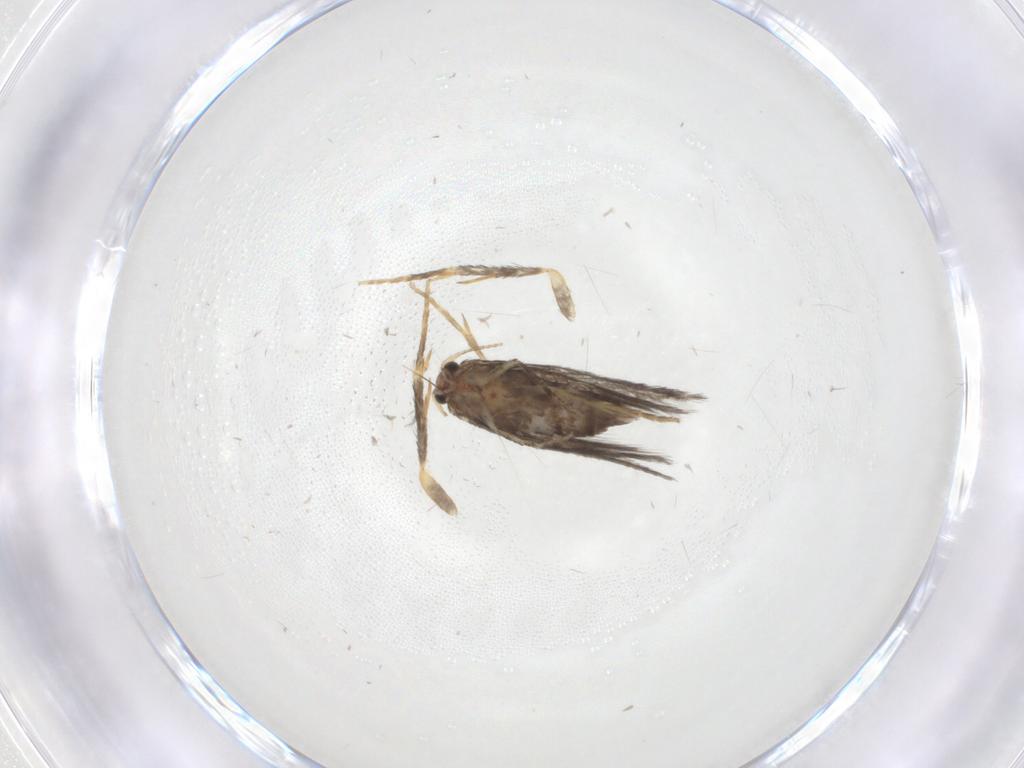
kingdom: Animalia
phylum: Arthropoda
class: Insecta
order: Lepidoptera
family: Nepticulidae
